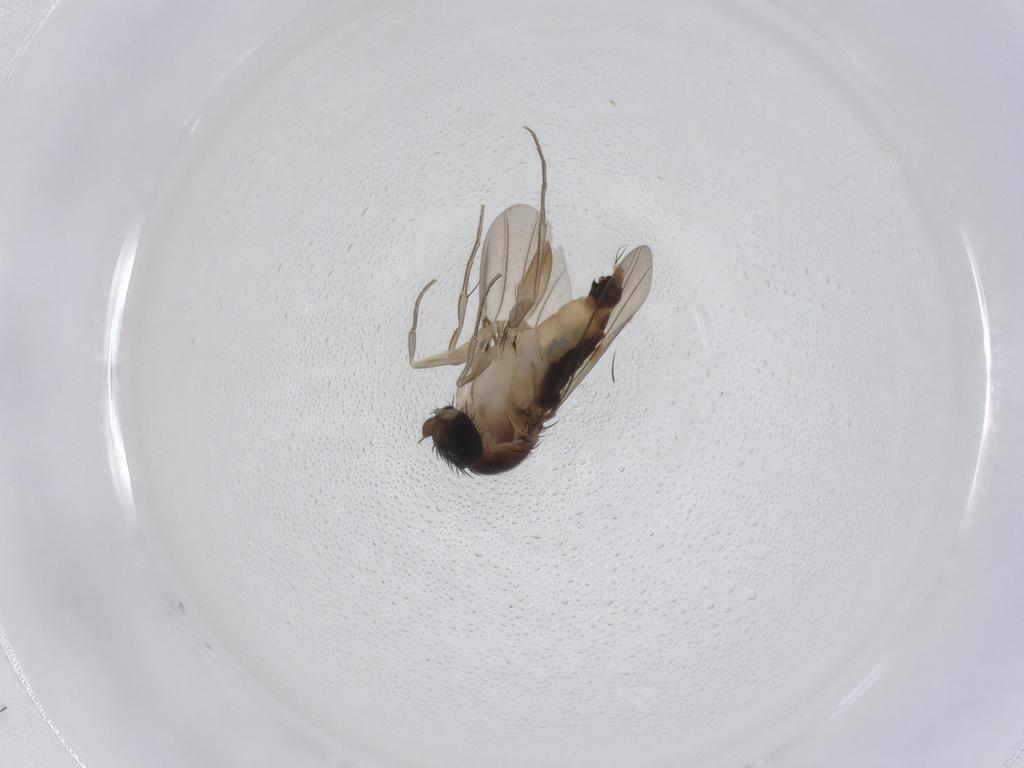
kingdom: Animalia
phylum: Arthropoda
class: Insecta
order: Diptera
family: Phoridae
